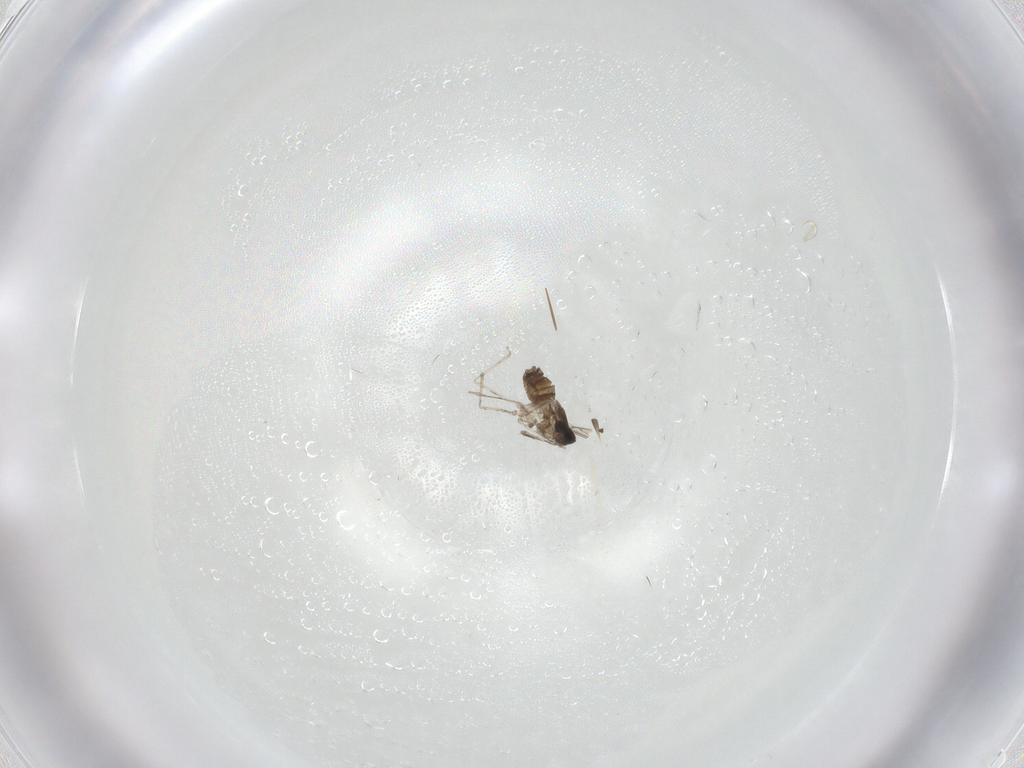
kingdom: Animalia
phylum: Arthropoda
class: Insecta
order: Diptera
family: Cecidomyiidae
